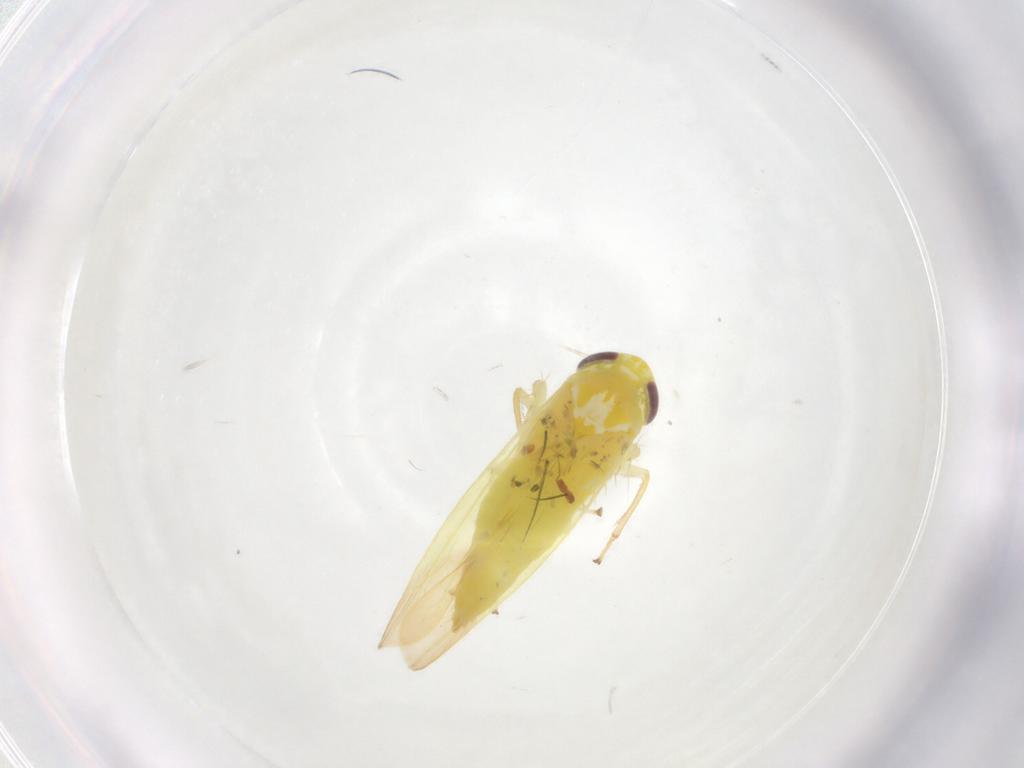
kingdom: Animalia
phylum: Arthropoda
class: Insecta
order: Hemiptera
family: Cicadellidae
